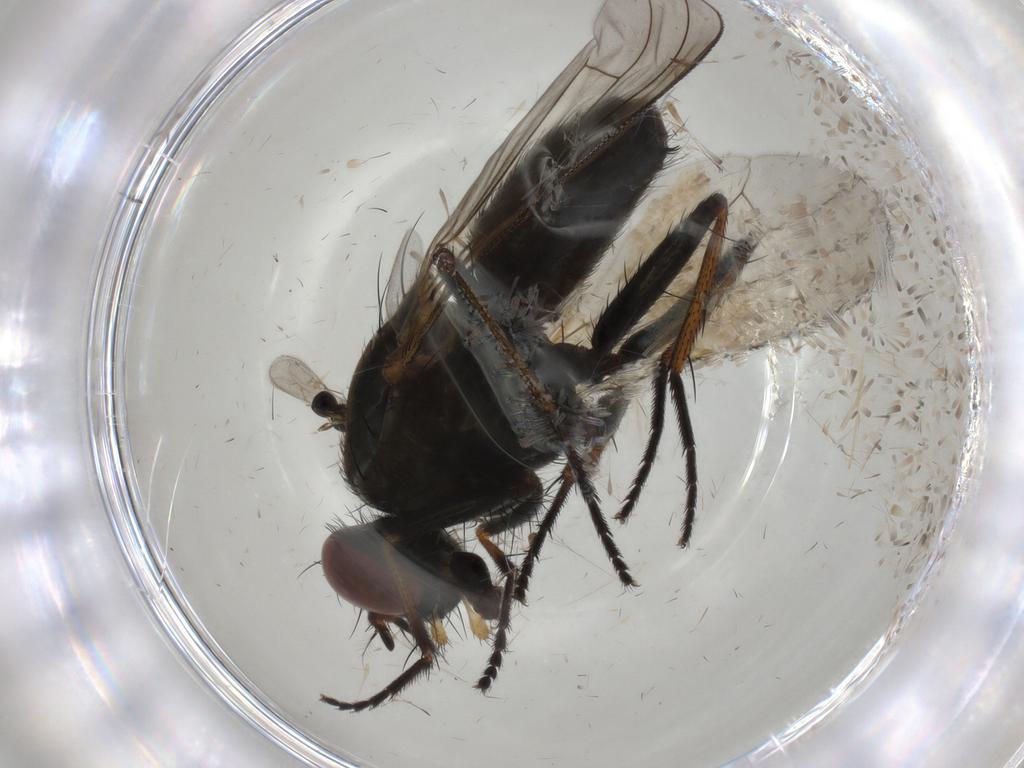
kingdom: Animalia
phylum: Arthropoda
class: Insecta
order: Diptera
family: Muscidae
